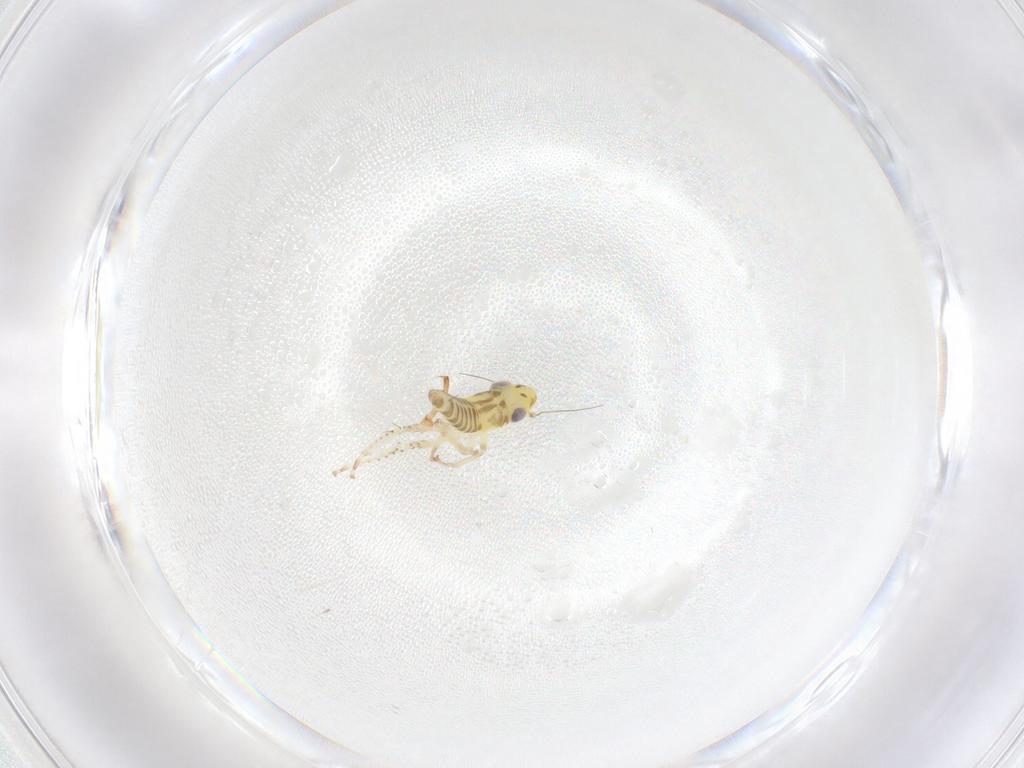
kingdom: Animalia
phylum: Arthropoda
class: Insecta
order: Hemiptera
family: Cicadellidae
